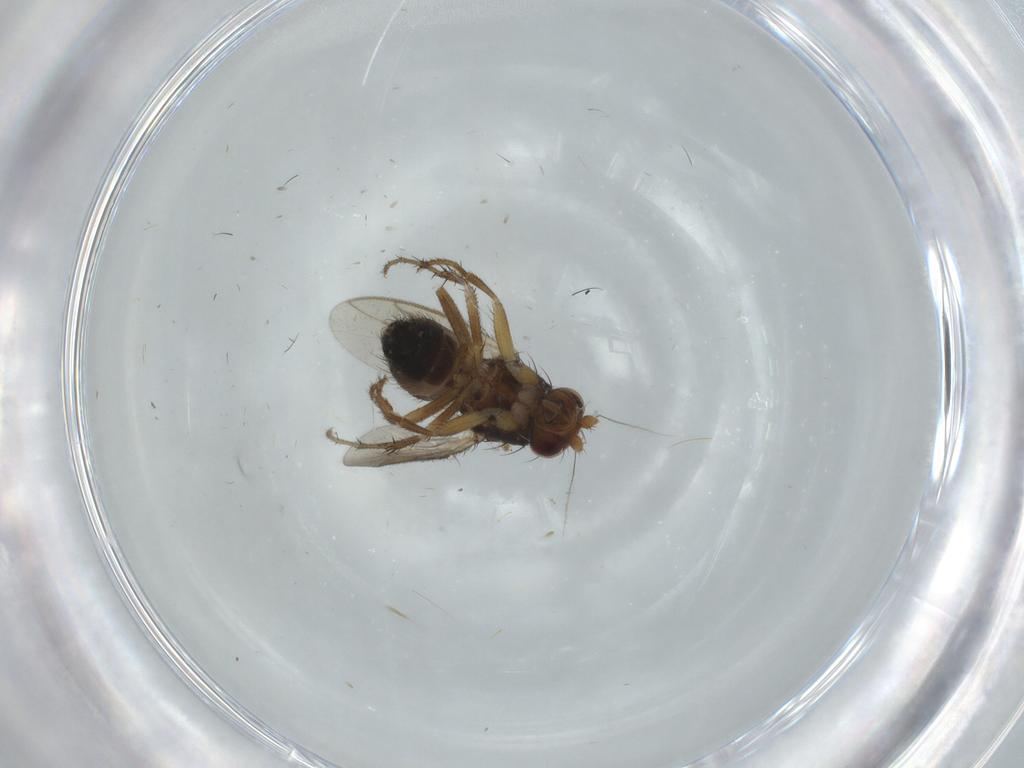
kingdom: Animalia
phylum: Arthropoda
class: Insecta
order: Diptera
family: Sphaeroceridae
